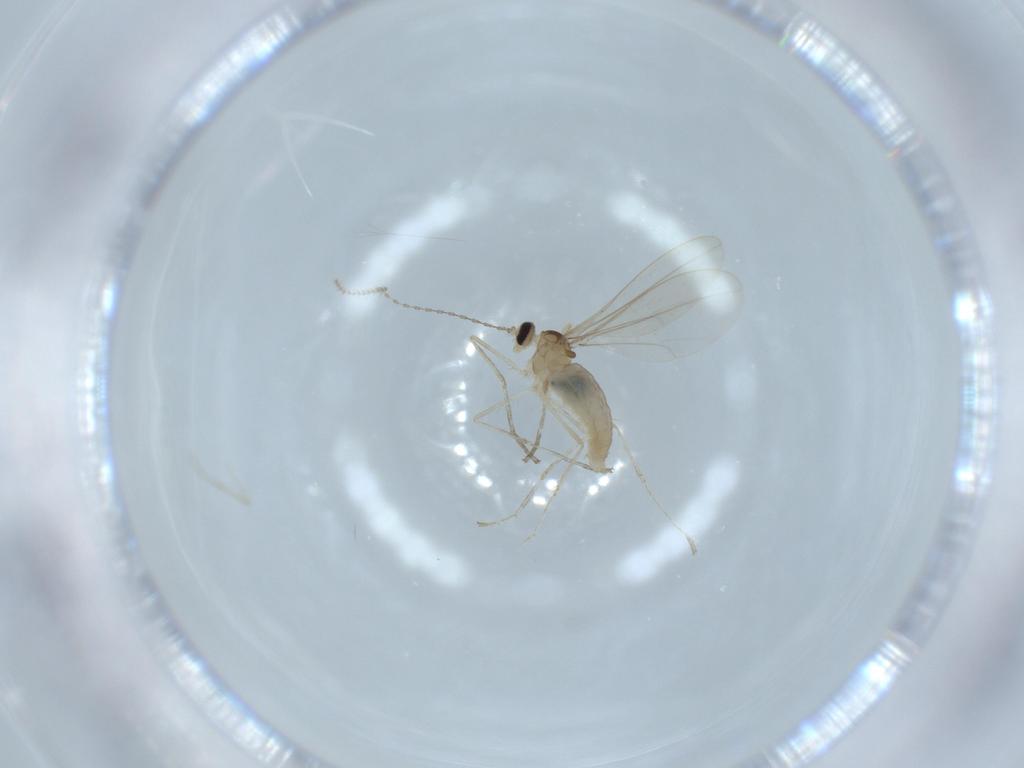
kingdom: Animalia
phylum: Arthropoda
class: Insecta
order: Diptera
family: Cecidomyiidae
